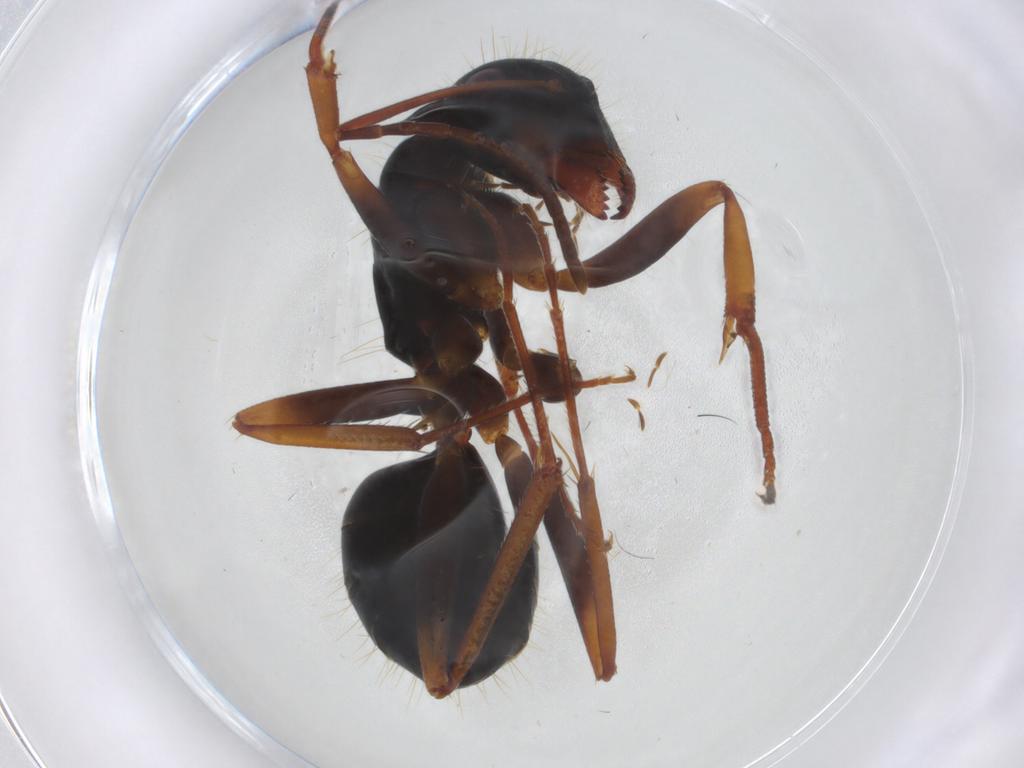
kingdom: Animalia
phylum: Arthropoda
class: Insecta
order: Hymenoptera
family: Formicidae
